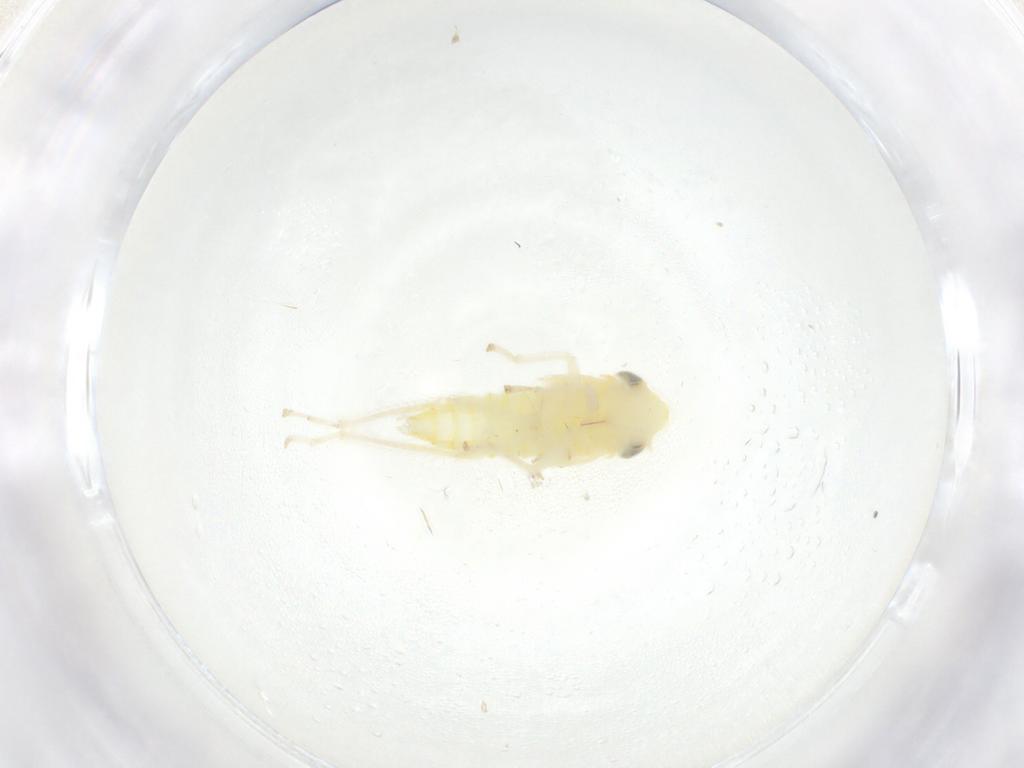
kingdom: Animalia
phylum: Arthropoda
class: Insecta
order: Hemiptera
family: Cicadellidae
